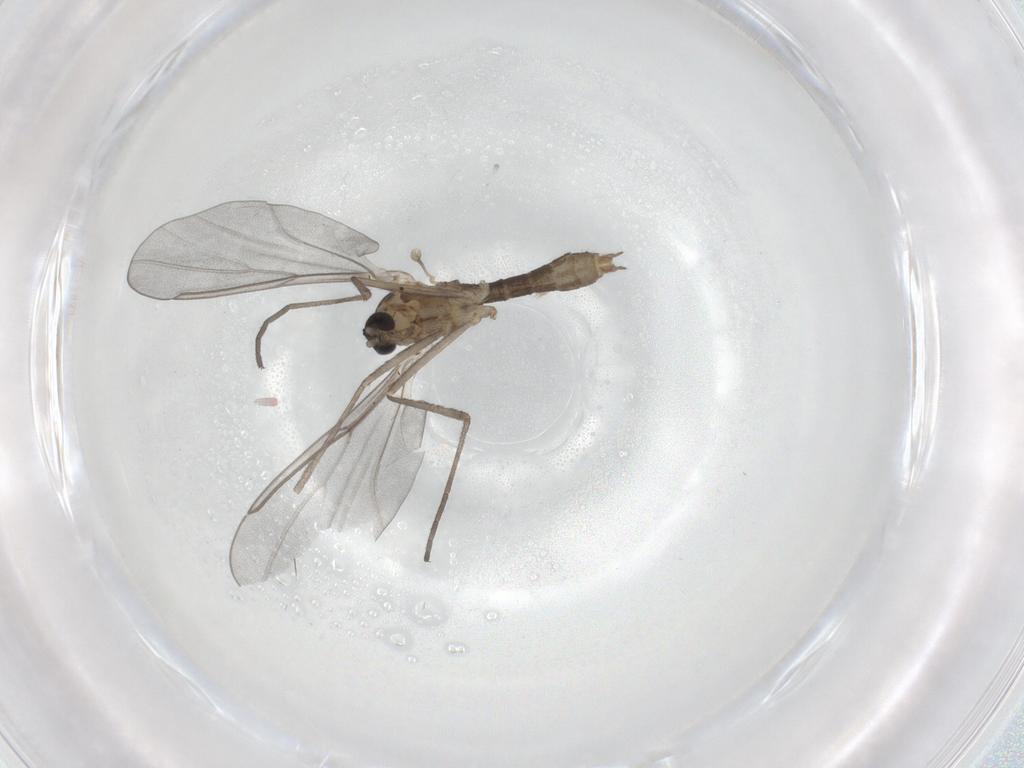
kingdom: Animalia
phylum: Arthropoda
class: Insecta
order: Diptera
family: Cecidomyiidae
